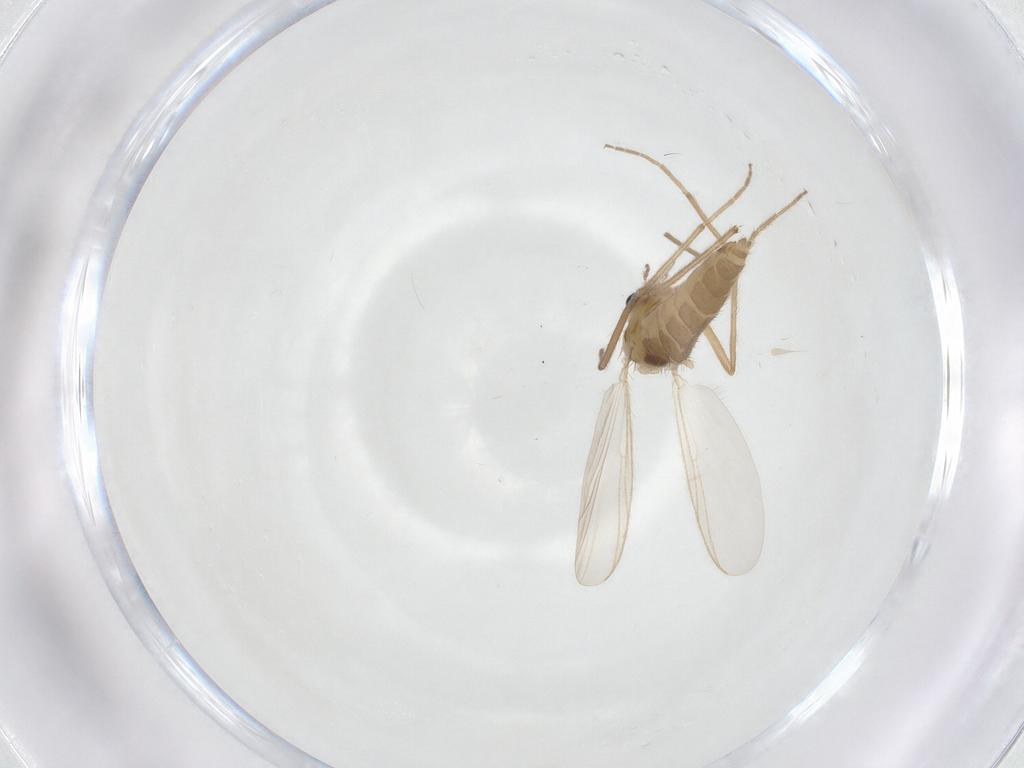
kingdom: Animalia
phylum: Arthropoda
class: Insecta
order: Diptera
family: Chironomidae
